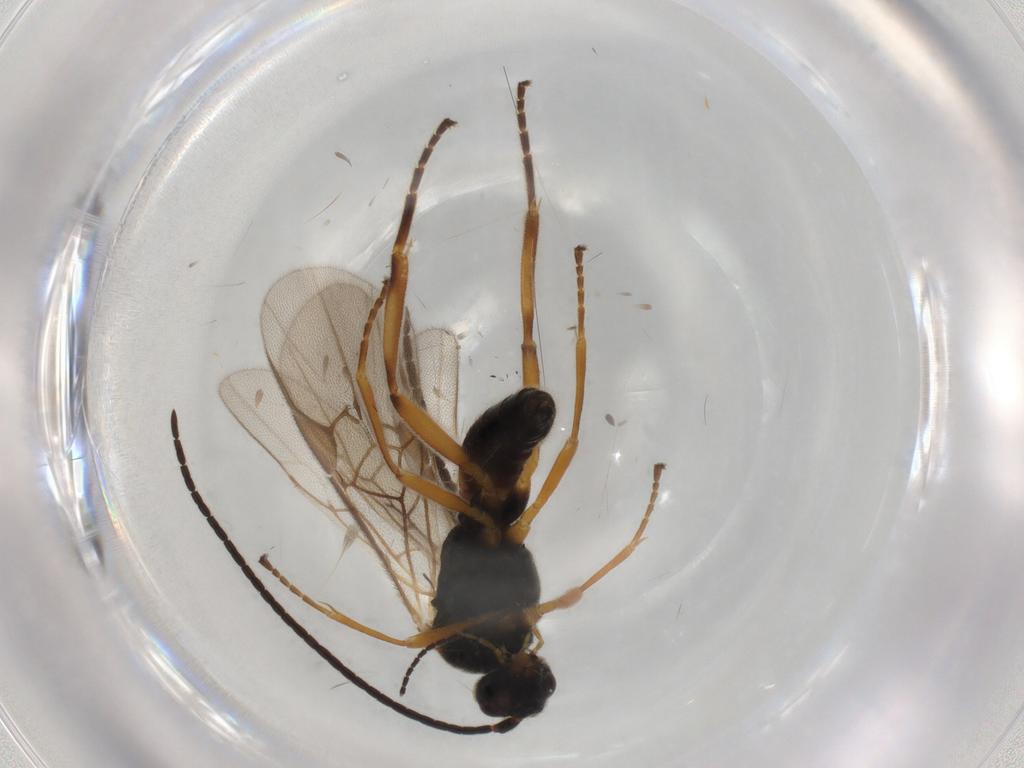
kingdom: Animalia
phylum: Arthropoda
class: Insecta
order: Hymenoptera
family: Braconidae
